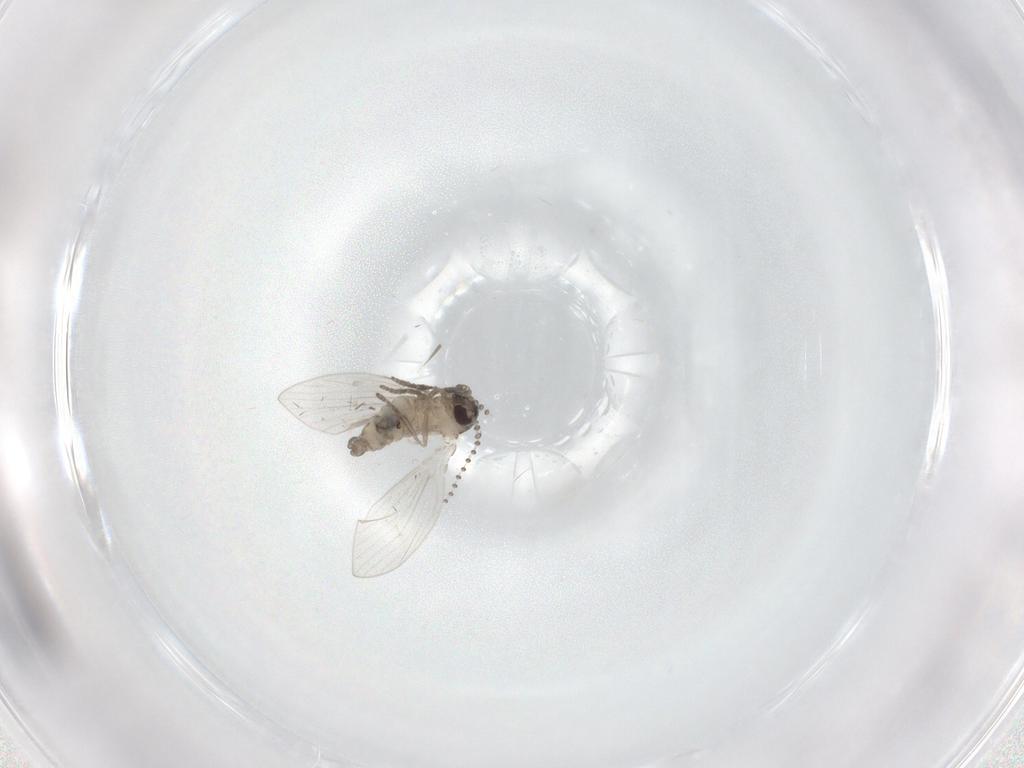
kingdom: Animalia
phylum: Arthropoda
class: Insecta
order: Diptera
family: Psychodidae
